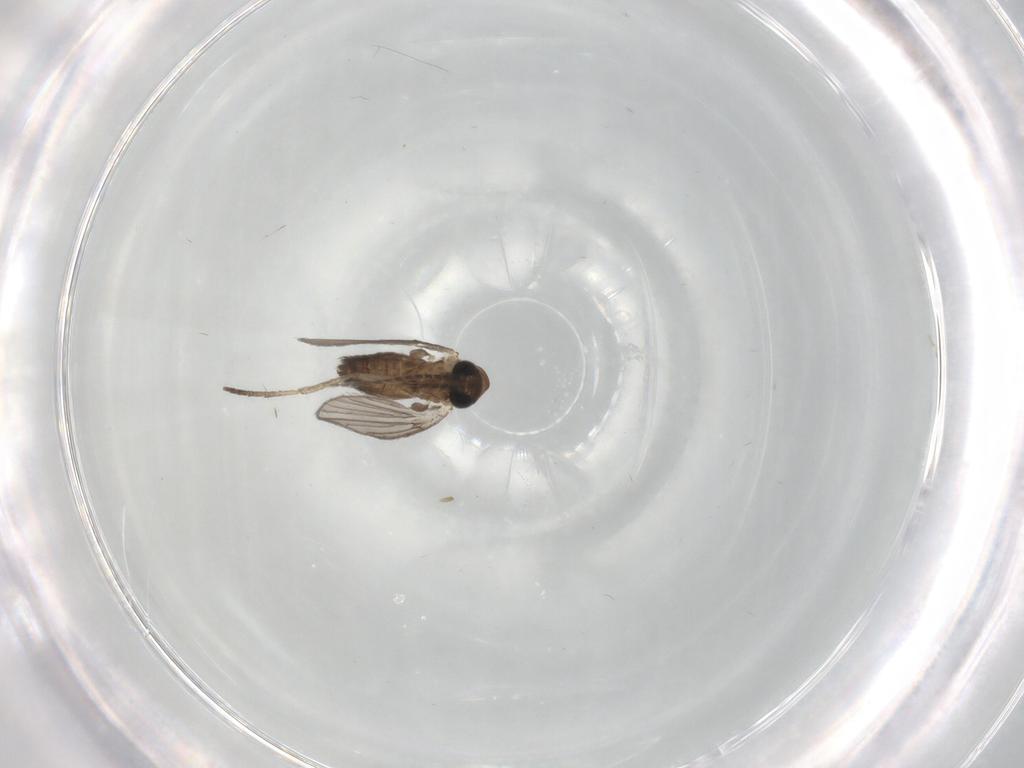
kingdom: Animalia
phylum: Arthropoda
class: Insecta
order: Diptera
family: Psychodidae
